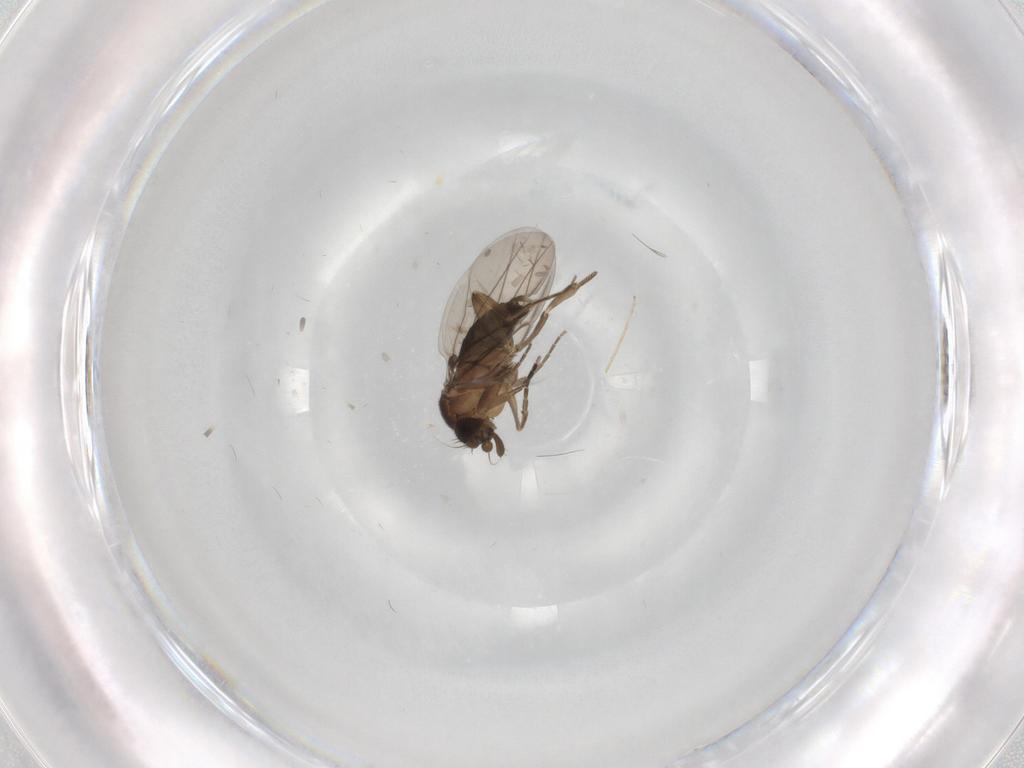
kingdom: Animalia
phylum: Arthropoda
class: Insecta
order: Diptera
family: Phoridae
